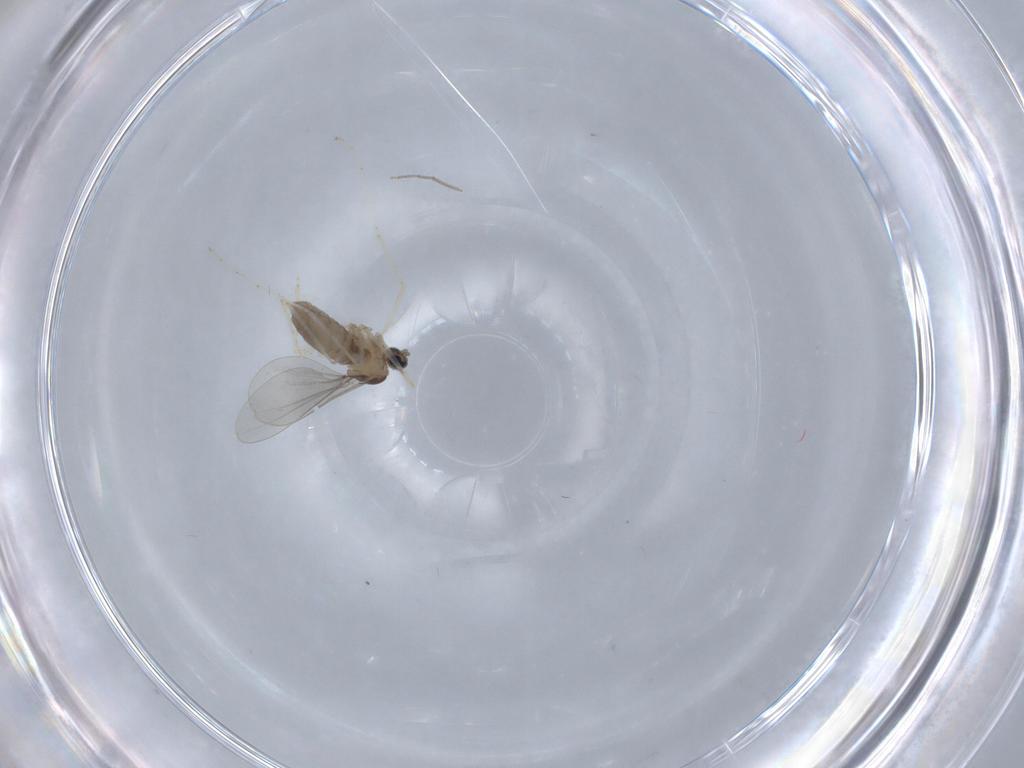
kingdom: Animalia
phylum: Arthropoda
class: Insecta
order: Diptera
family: Chironomidae
